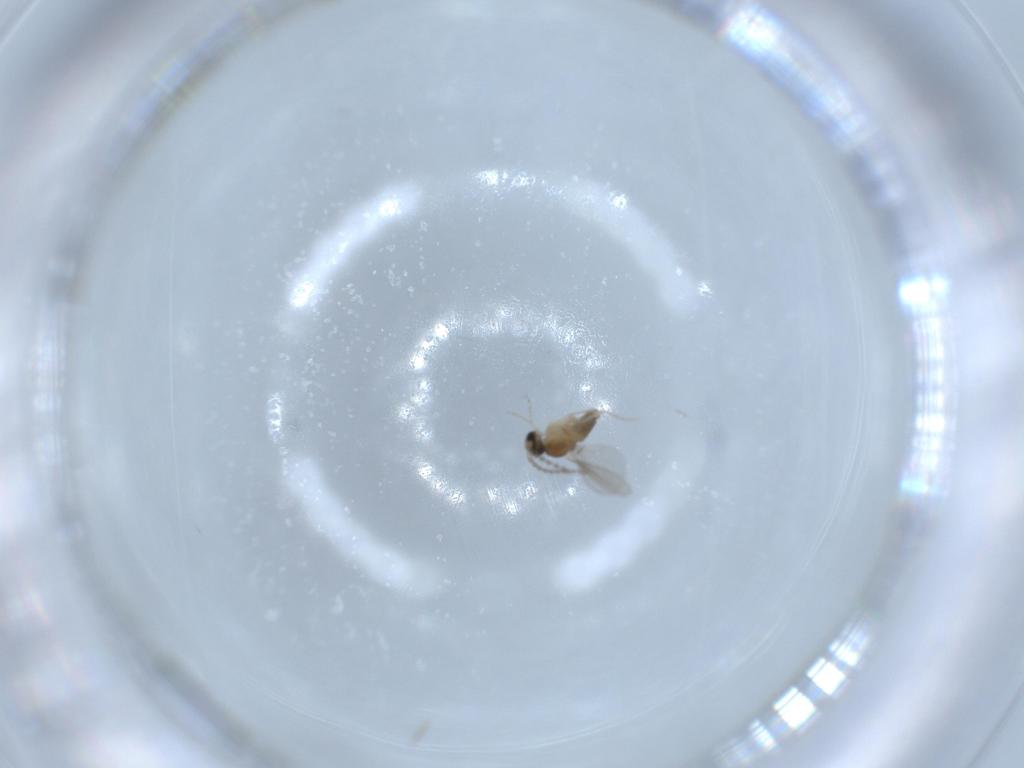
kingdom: Animalia
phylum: Arthropoda
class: Insecta
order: Diptera
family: Cecidomyiidae
